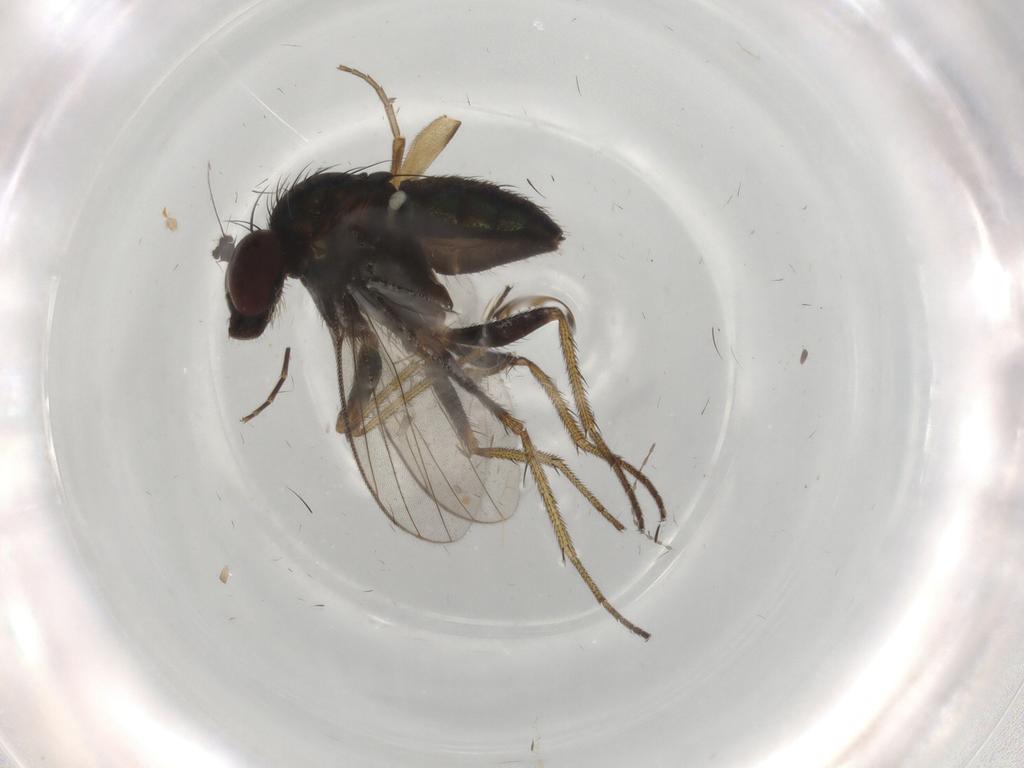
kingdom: Animalia
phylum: Arthropoda
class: Insecta
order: Diptera
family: Dolichopodidae
